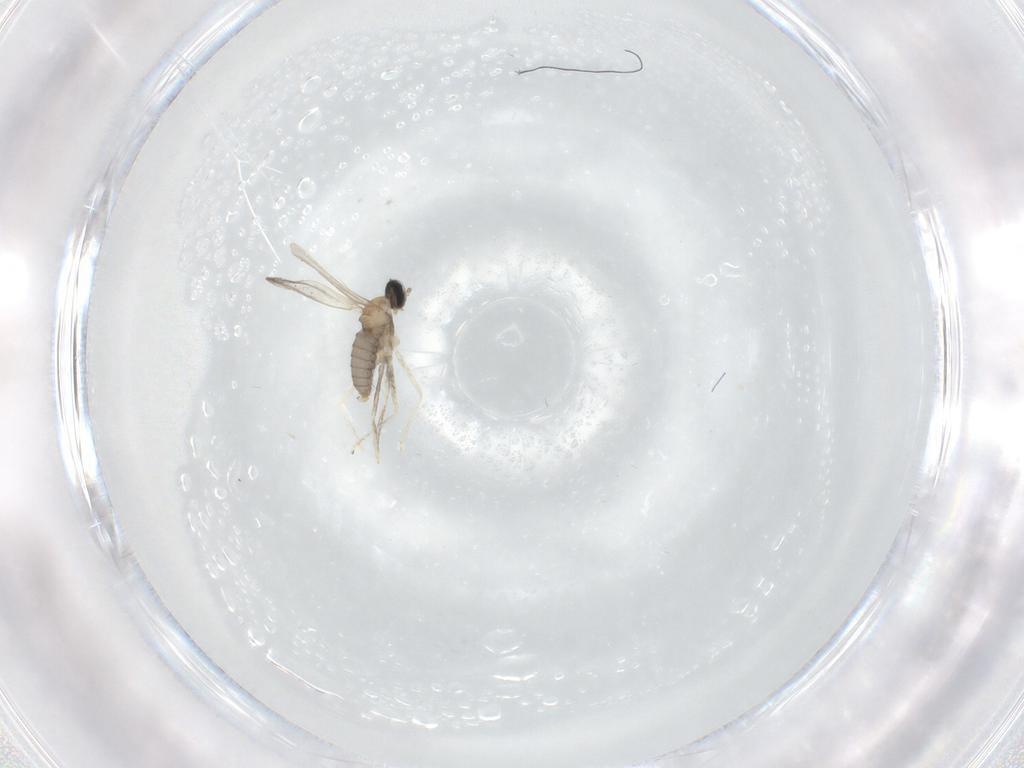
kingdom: Animalia
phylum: Arthropoda
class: Insecta
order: Diptera
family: Cecidomyiidae
